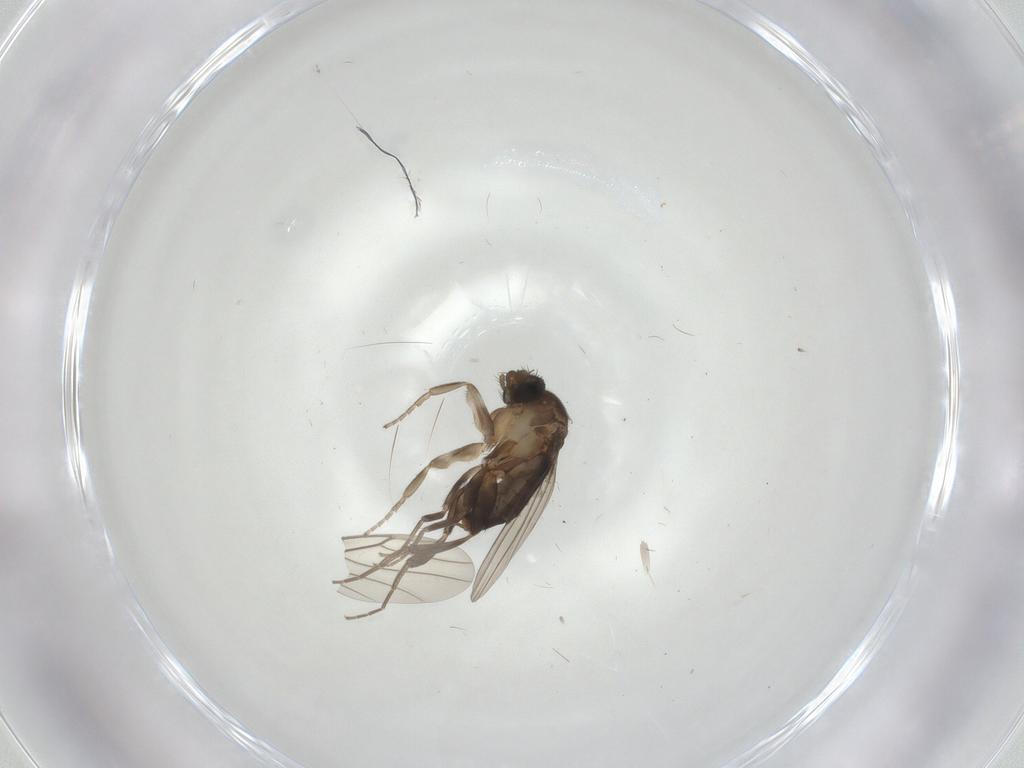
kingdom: Animalia
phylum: Arthropoda
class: Insecta
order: Diptera
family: Phoridae
